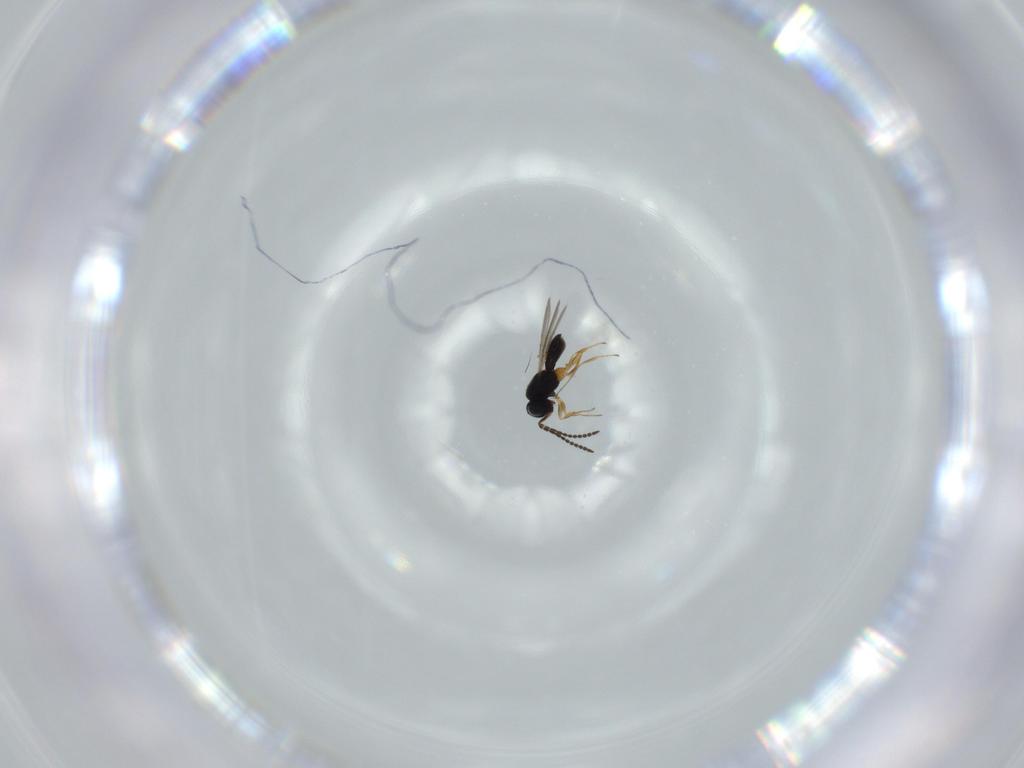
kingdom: Animalia
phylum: Arthropoda
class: Insecta
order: Hymenoptera
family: Scelionidae
